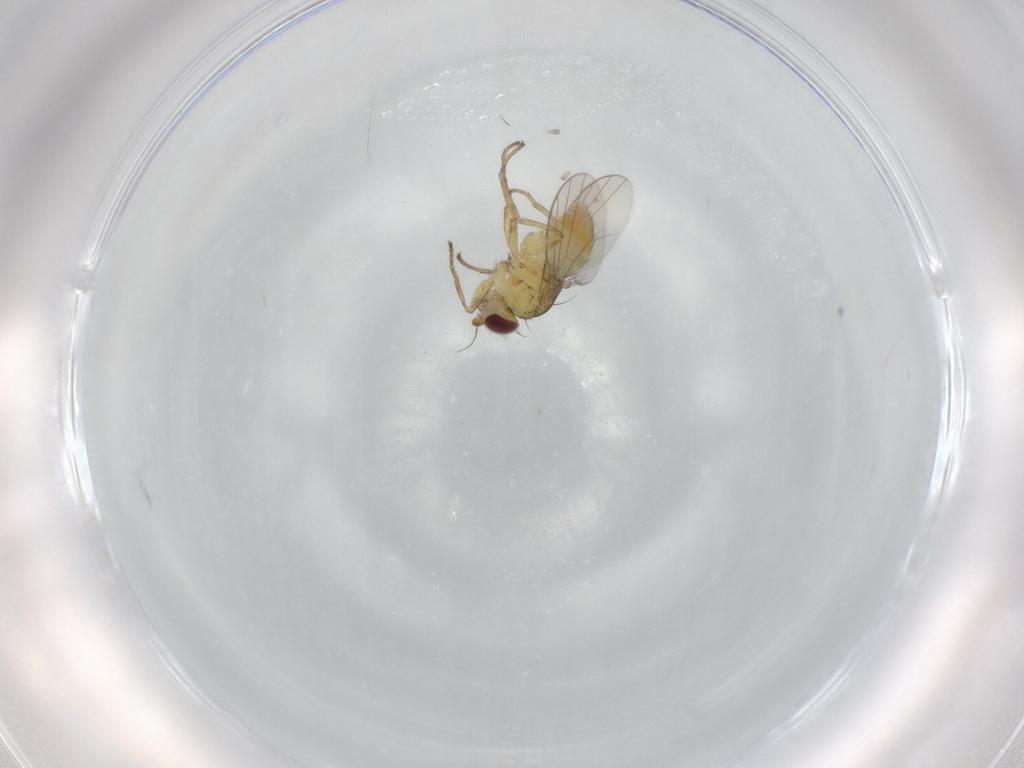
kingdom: Animalia
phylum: Arthropoda
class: Insecta
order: Diptera
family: Agromyzidae
